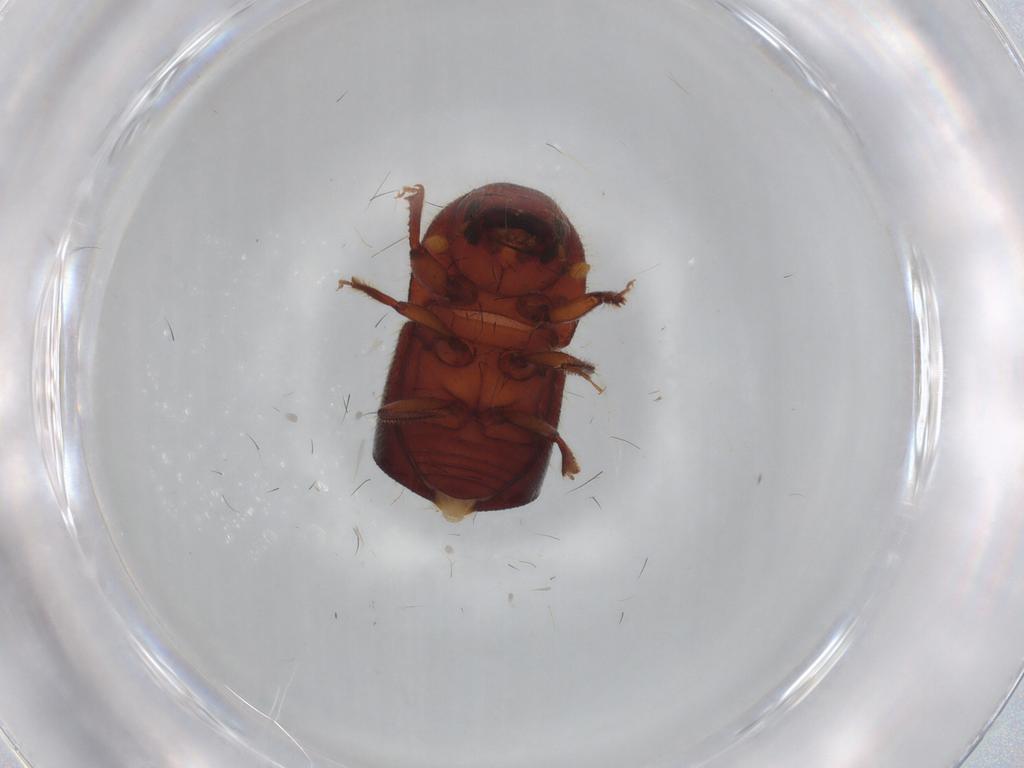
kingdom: Animalia
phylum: Arthropoda
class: Insecta
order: Coleoptera
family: Curculionidae
